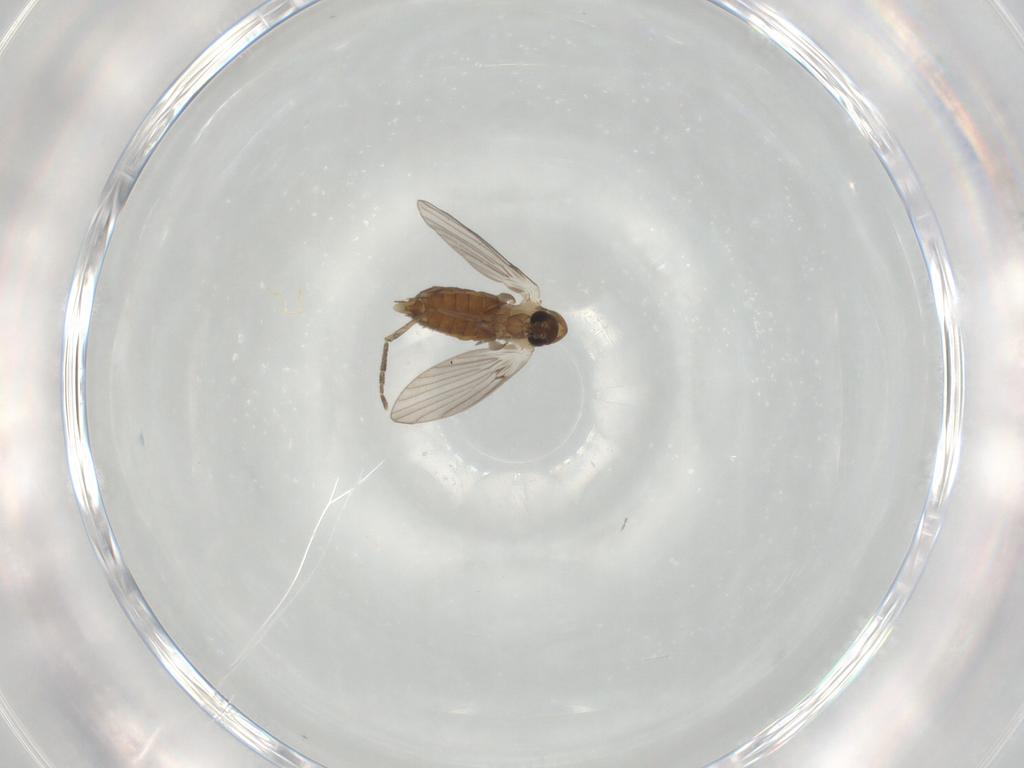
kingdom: Animalia
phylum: Arthropoda
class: Insecta
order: Diptera
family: Psychodidae
